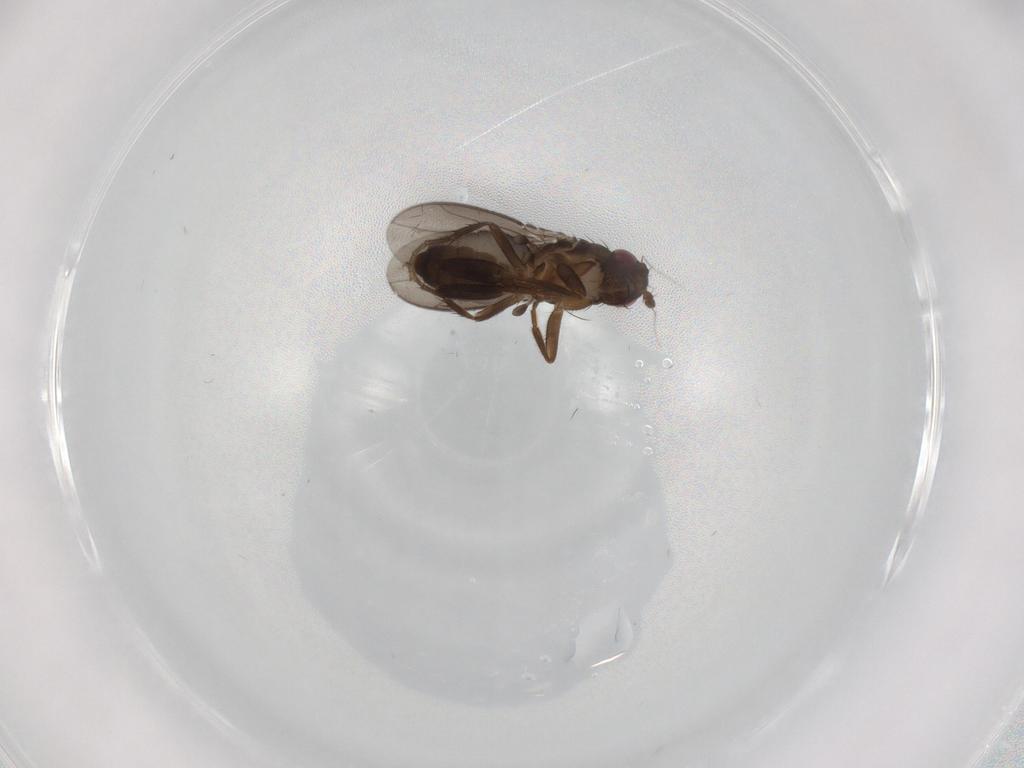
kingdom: Animalia
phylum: Arthropoda
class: Insecta
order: Diptera
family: Sphaeroceridae
